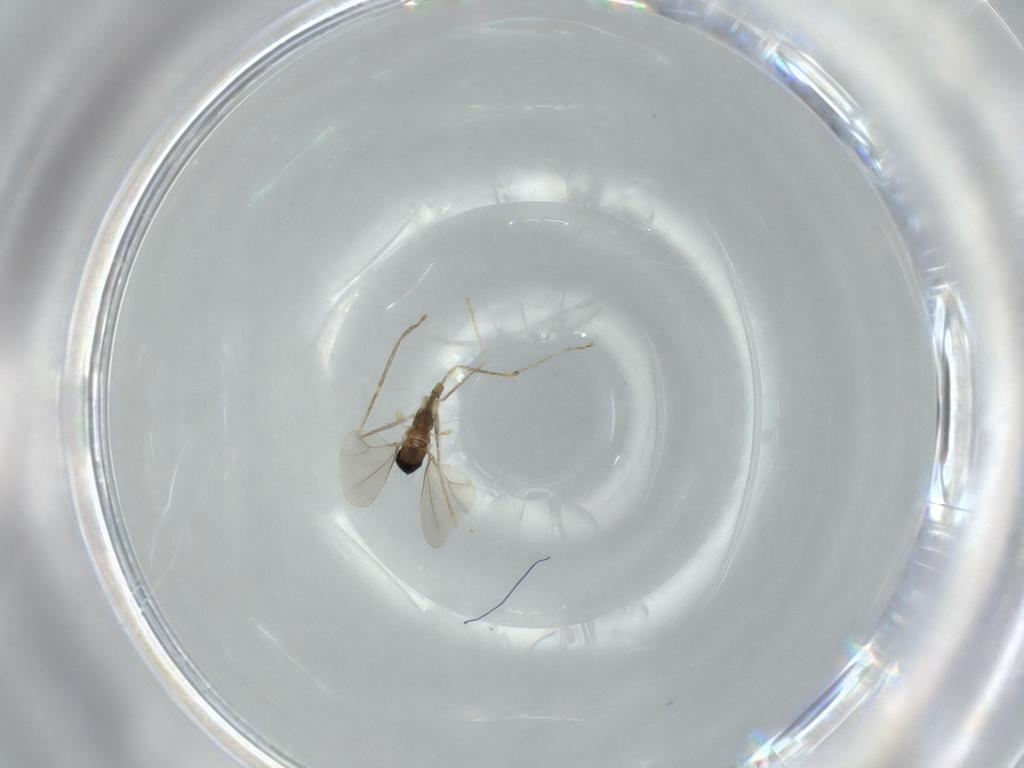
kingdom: Animalia
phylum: Arthropoda
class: Insecta
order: Diptera
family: Cecidomyiidae
